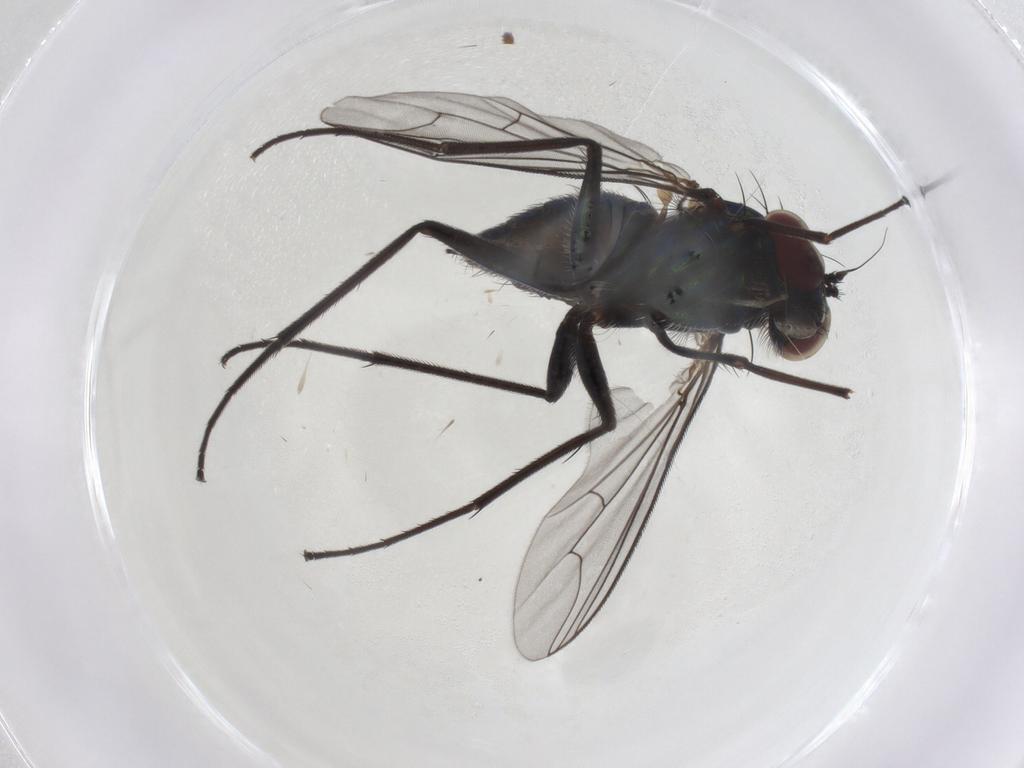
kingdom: Animalia
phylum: Arthropoda
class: Insecta
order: Diptera
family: Dolichopodidae
